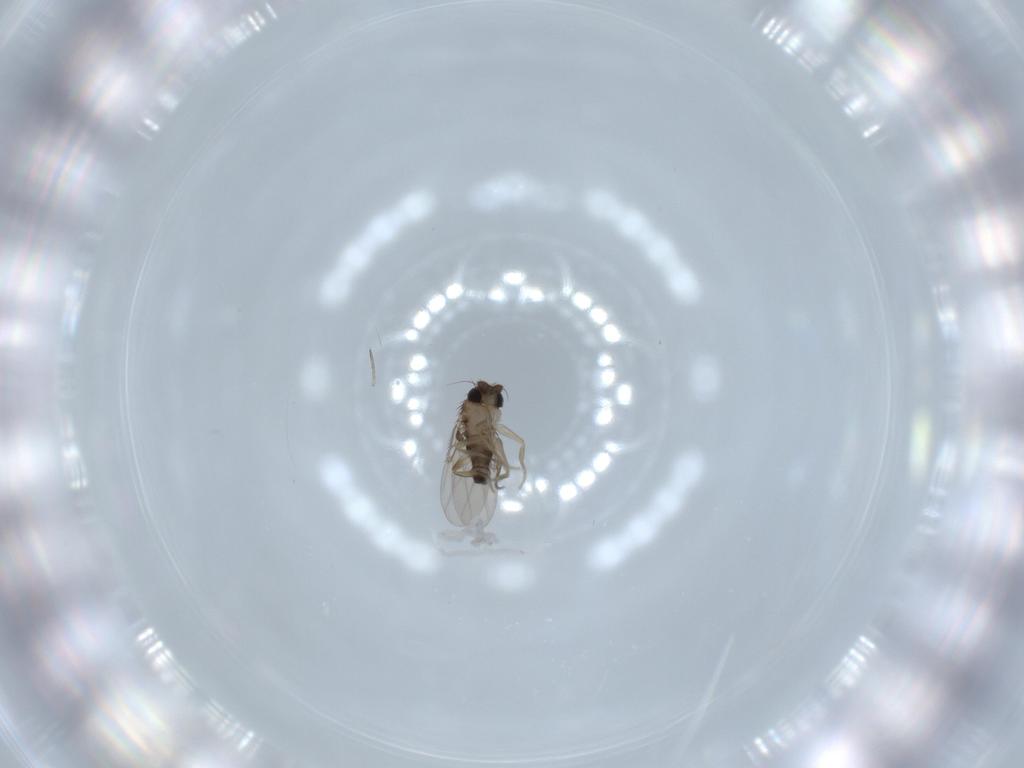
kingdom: Animalia
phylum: Arthropoda
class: Insecta
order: Diptera
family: Phoridae
